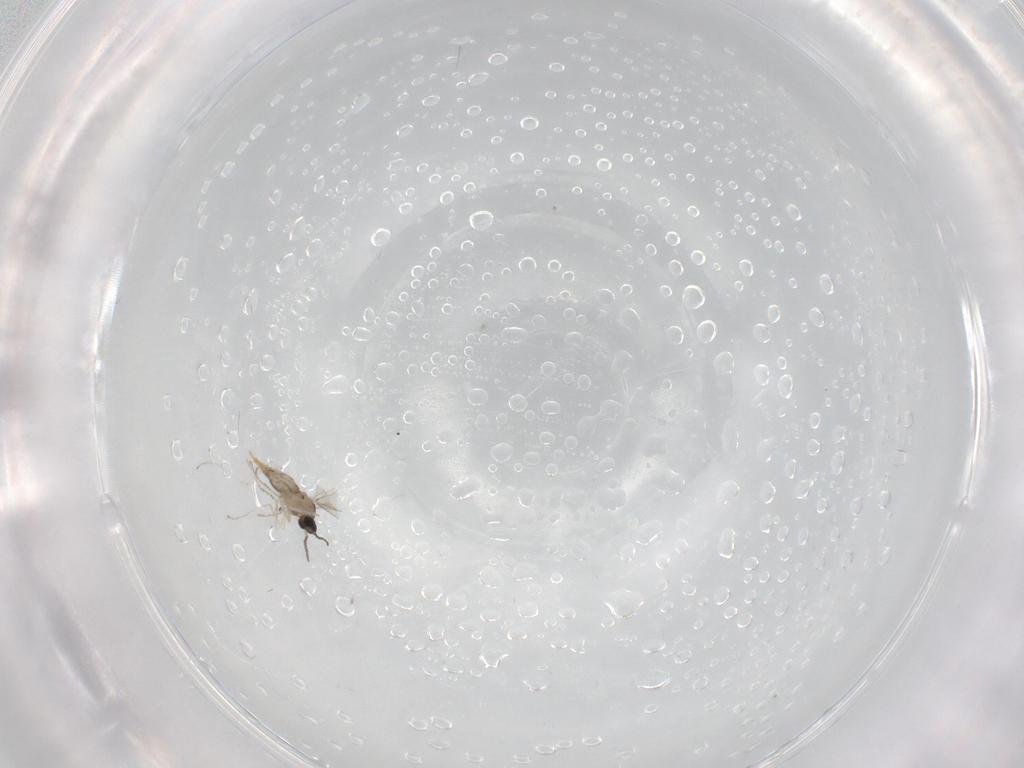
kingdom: Animalia
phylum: Arthropoda
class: Insecta
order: Diptera
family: Cecidomyiidae
